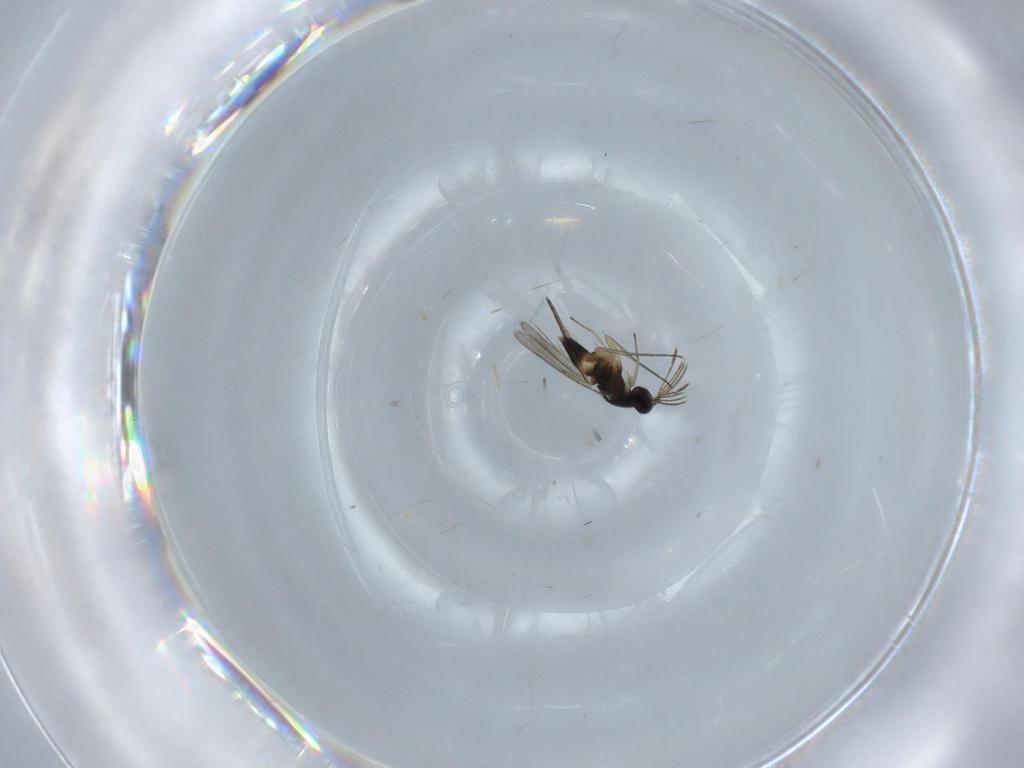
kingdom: Animalia
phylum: Arthropoda
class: Insecta
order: Hymenoptera
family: Eulophidae
